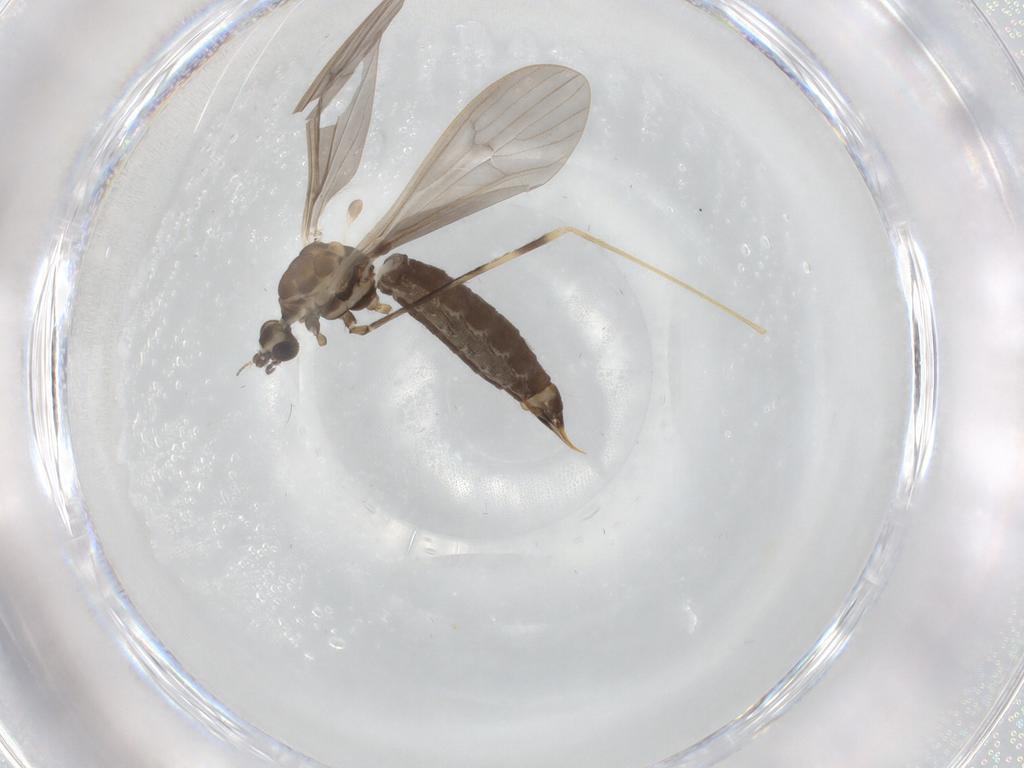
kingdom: Animalia
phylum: Arthropoda
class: Insecta
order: Diptera
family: Limoniidae
